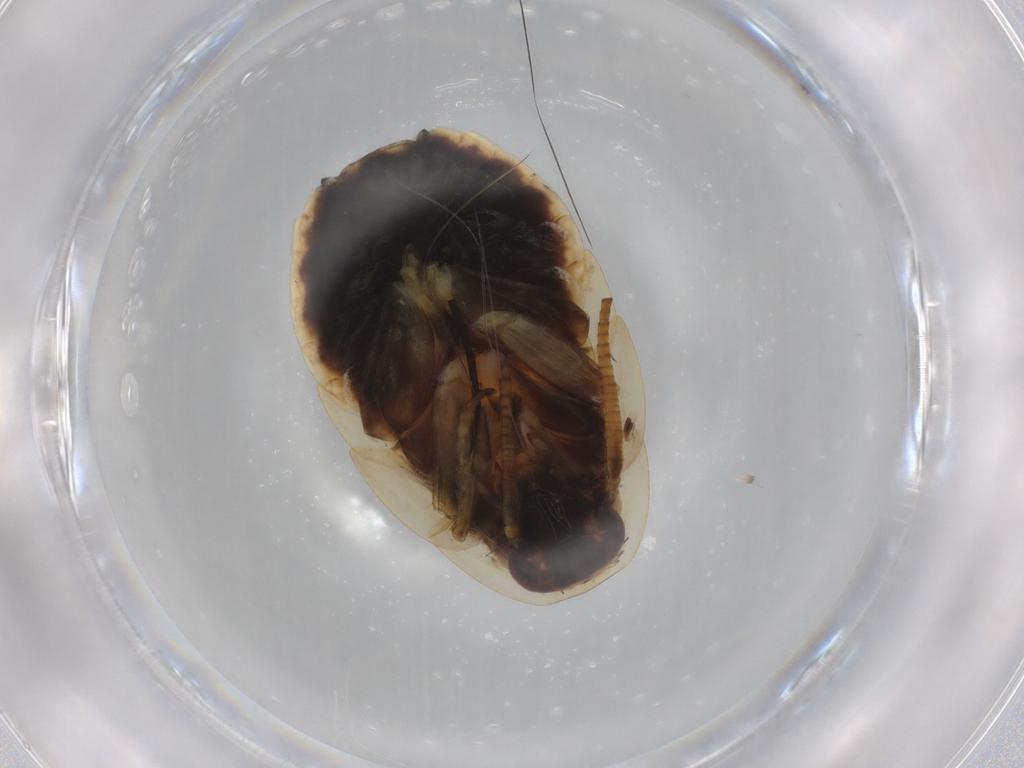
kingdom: Animalia
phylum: Arthropoda
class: Insecta
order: Blattodea
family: Ectobiidae
